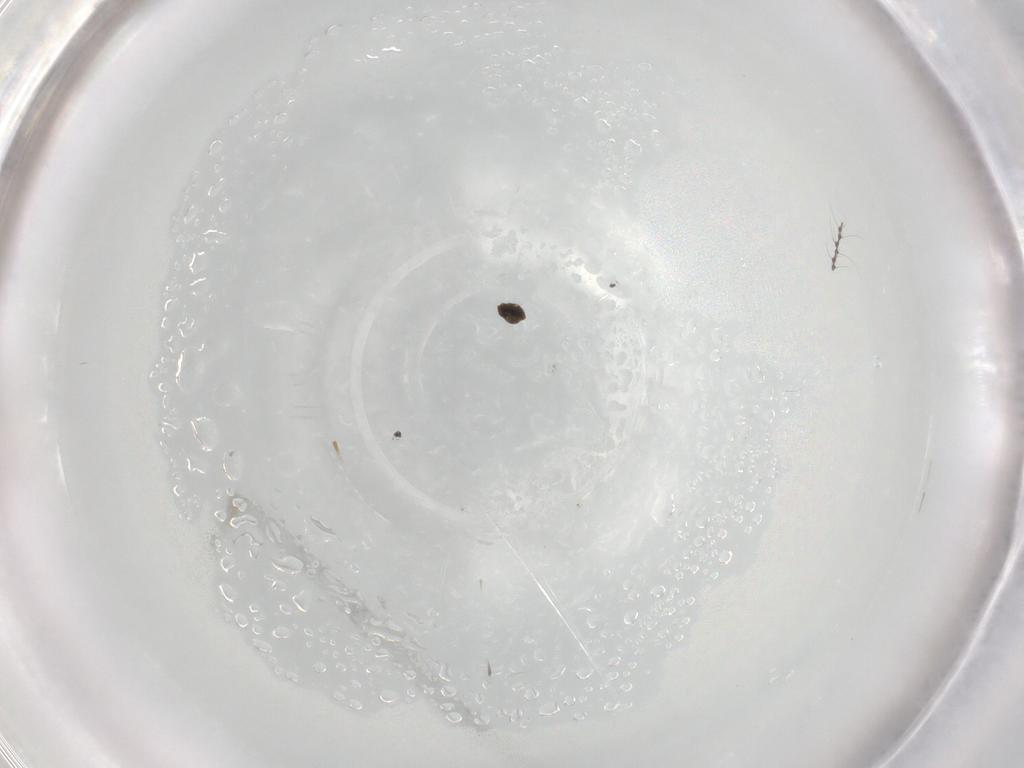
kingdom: Animalia
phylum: Arthropoda
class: Insecta
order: Diptera
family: Cecidomyiidae
